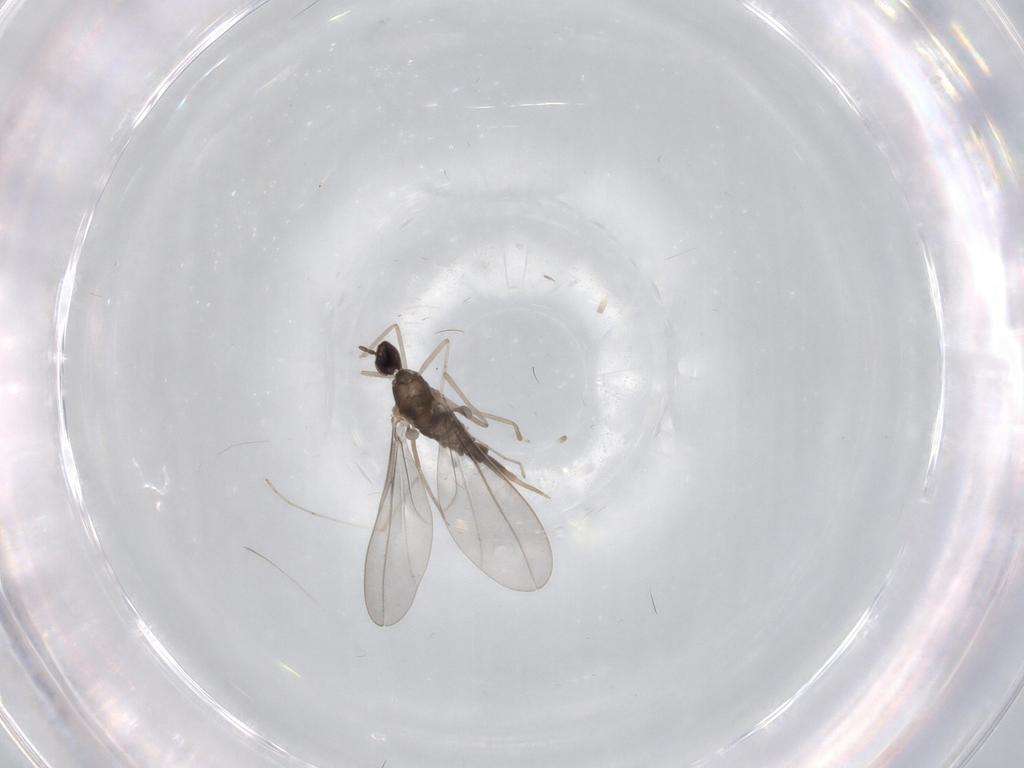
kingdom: Animalia
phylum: Arthropoda
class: Insecta
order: Diptera
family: Cecidomyiidae
